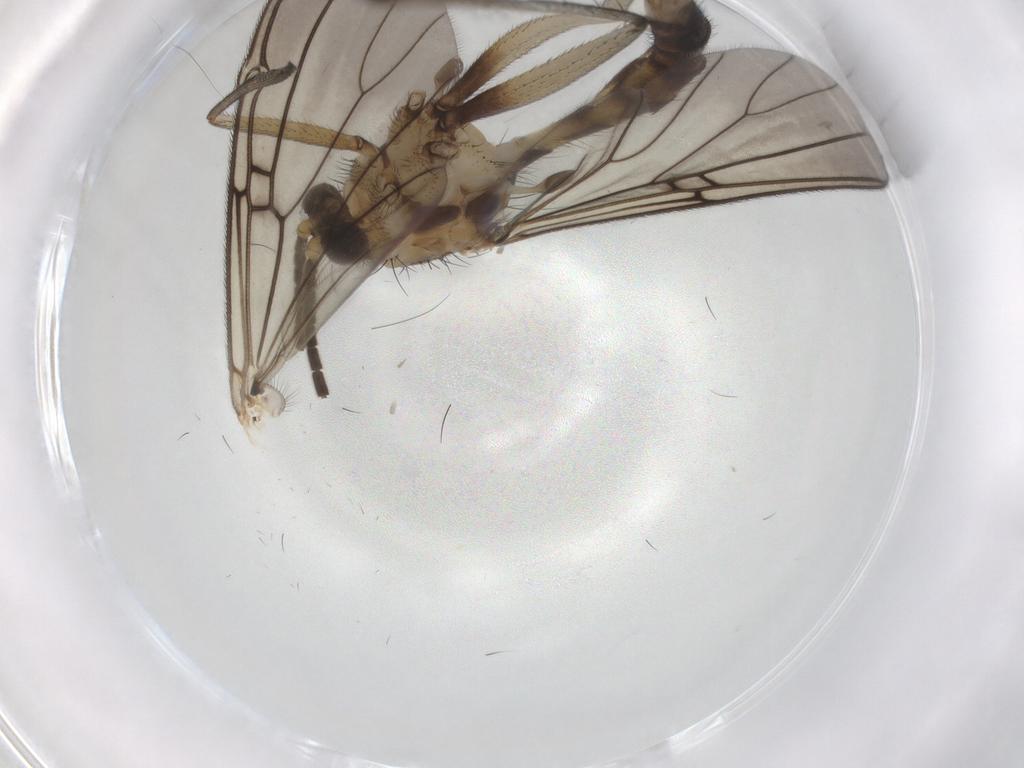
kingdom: Animalia
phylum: Arthropoda
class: Insecta
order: Diptera
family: Mycetophilidae
